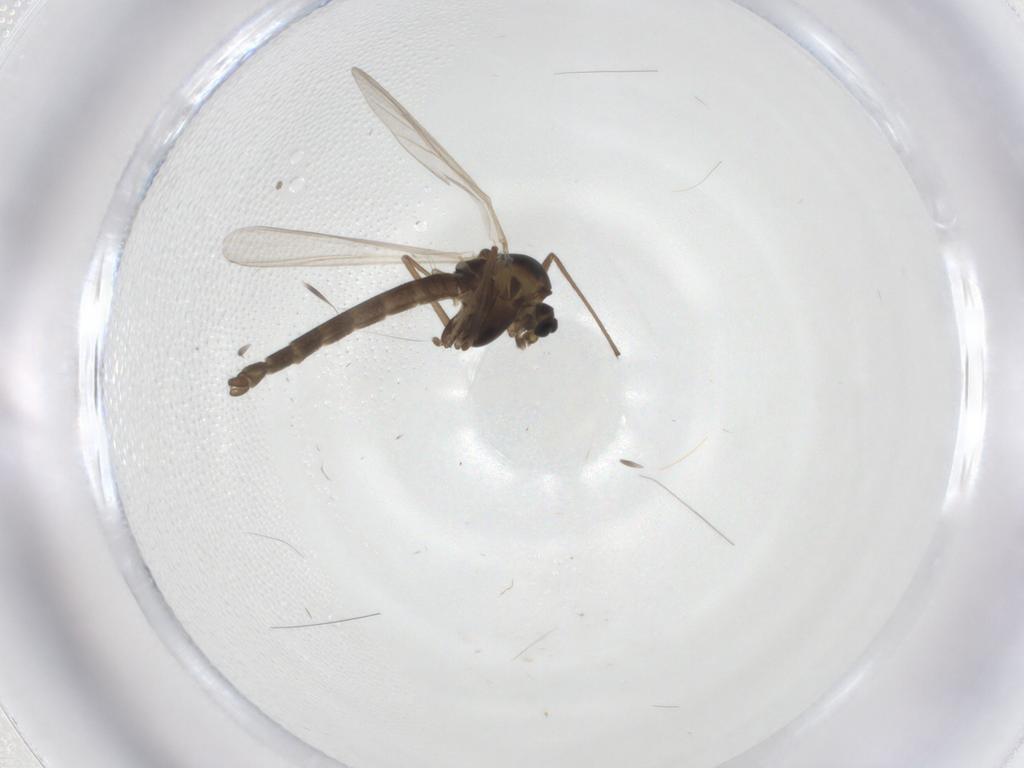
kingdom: Animalia
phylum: Arthropoda
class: Insecta
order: Diptera
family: Chironomidae
